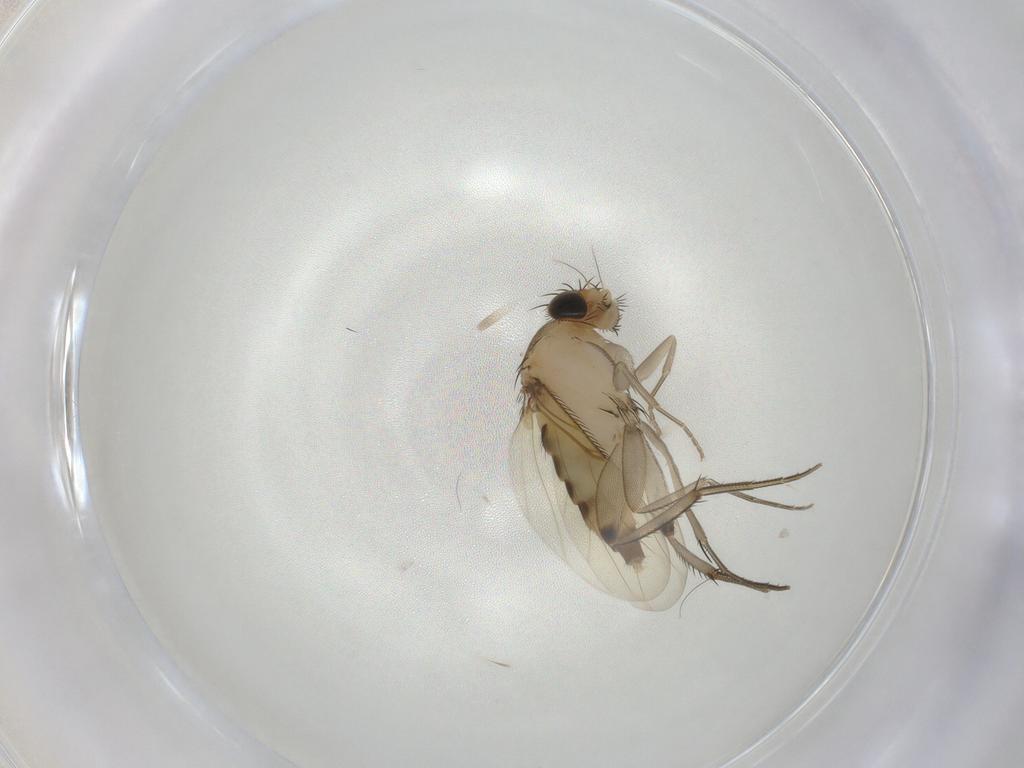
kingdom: Animalia
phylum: Arthropoda
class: Insecta
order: Diptera
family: Phoridae
